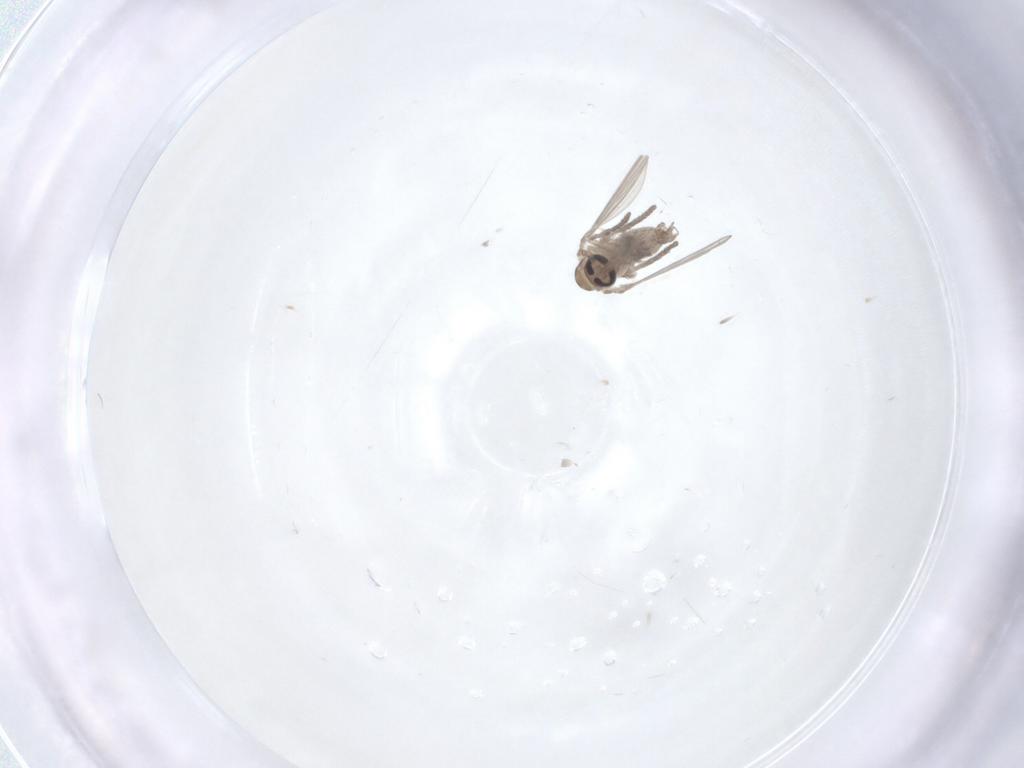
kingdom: Animalia
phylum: Arthropoda
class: Insecta
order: Diptera
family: Psychodidae
